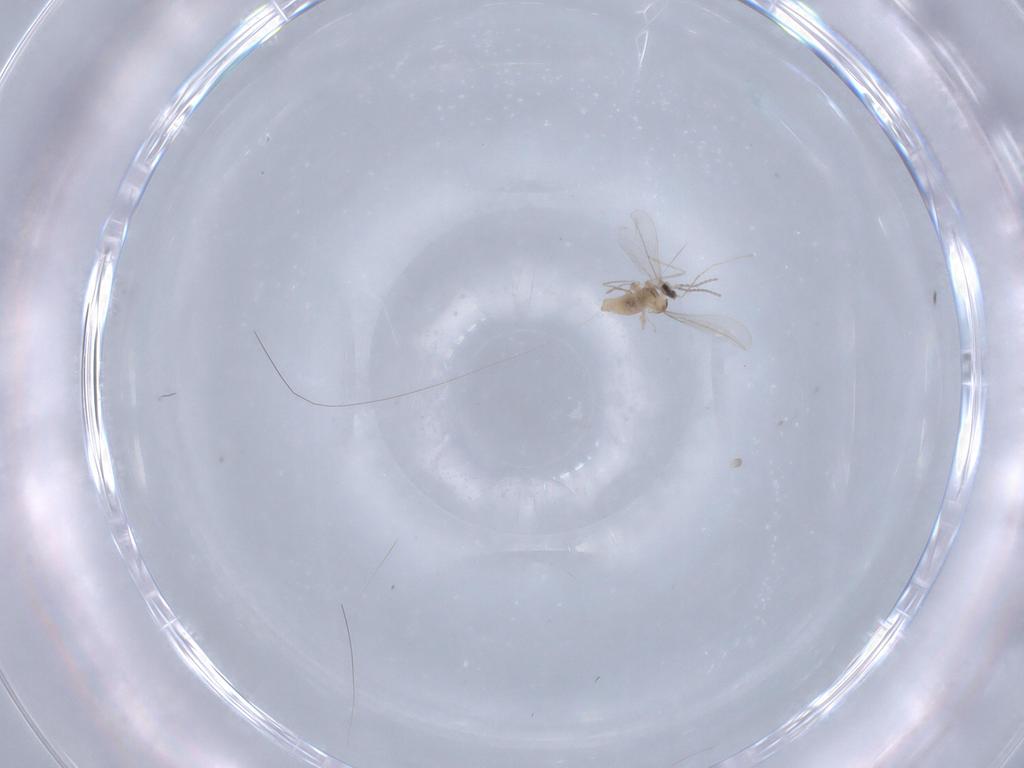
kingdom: Animalia
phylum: Arthropoda
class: Insecta
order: Diptera
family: Cecidomyiidae
